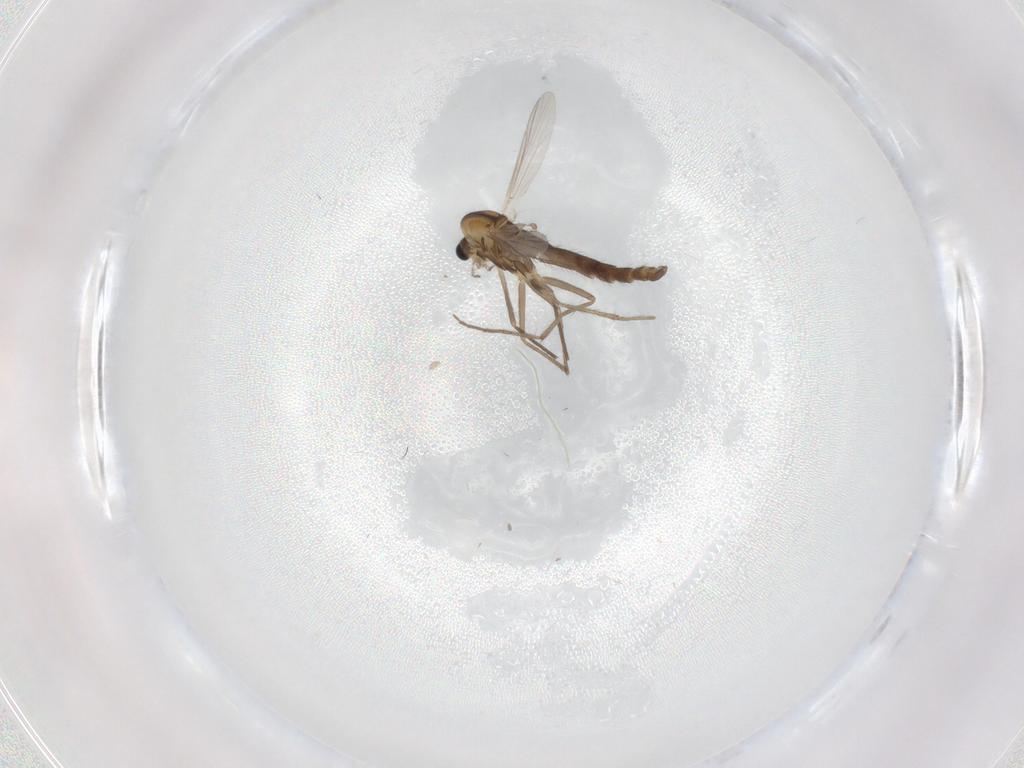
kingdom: Animalia
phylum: Arthropoda
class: Insecta
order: Diptera
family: Chironomidae
